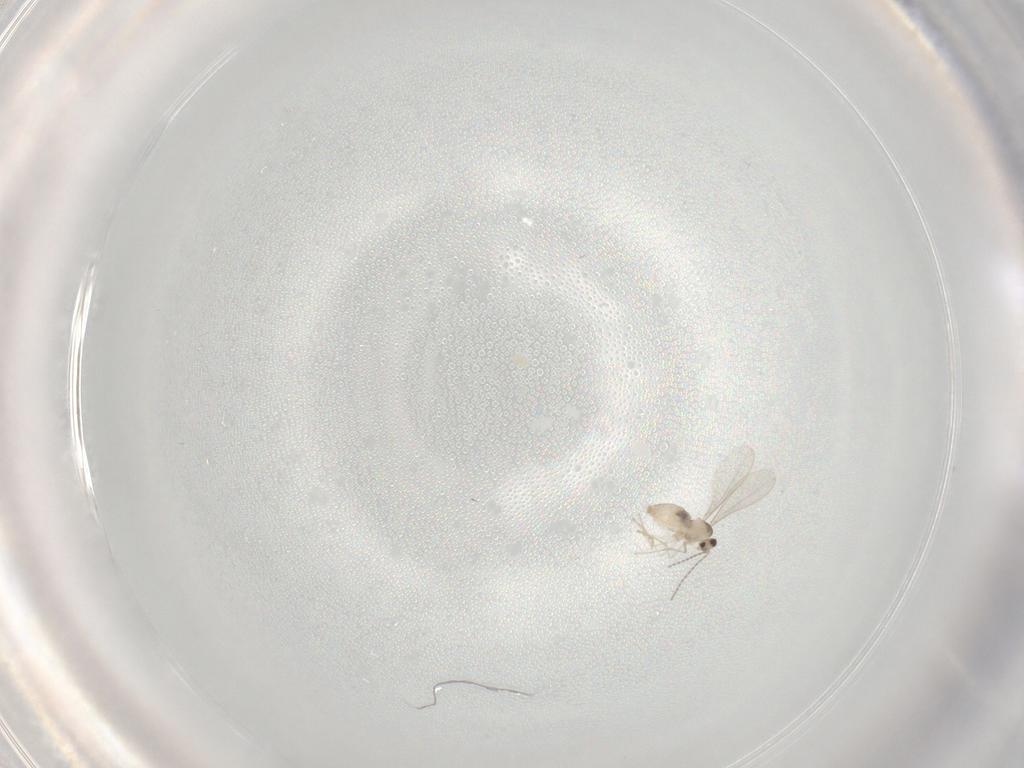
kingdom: Animalia
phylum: Arthropoda
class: Insecta
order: Diptera
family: Cecidomyiidae
